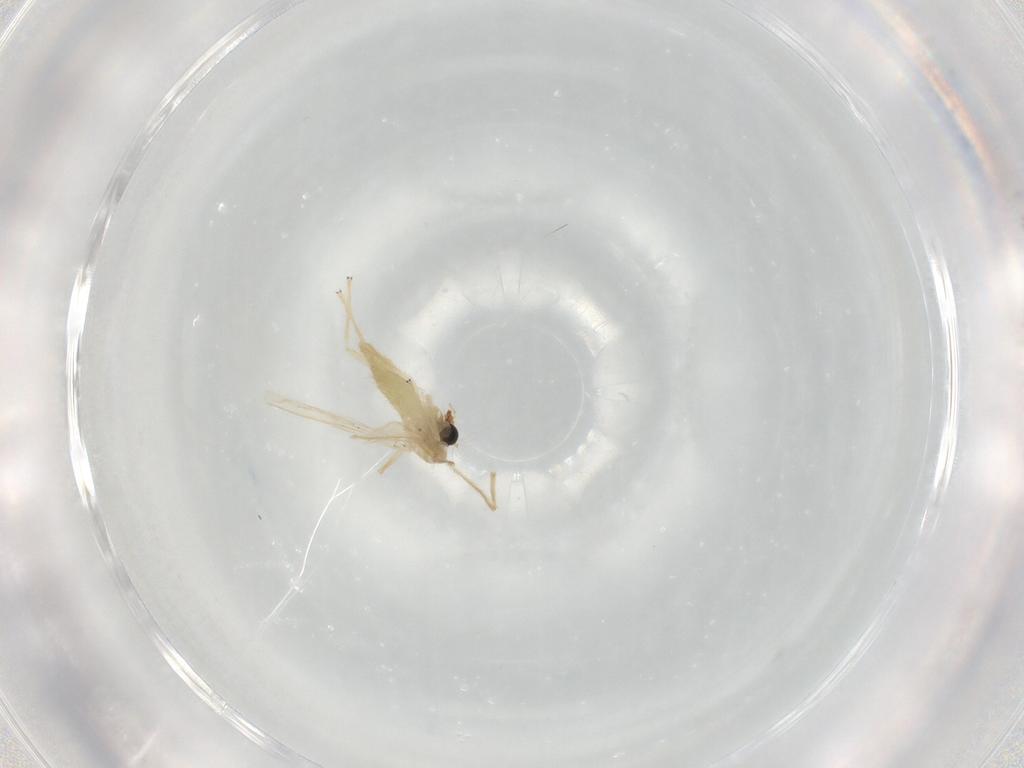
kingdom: Animalia
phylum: Arthropoda
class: Insecta
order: Diptera
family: Chironomidae
